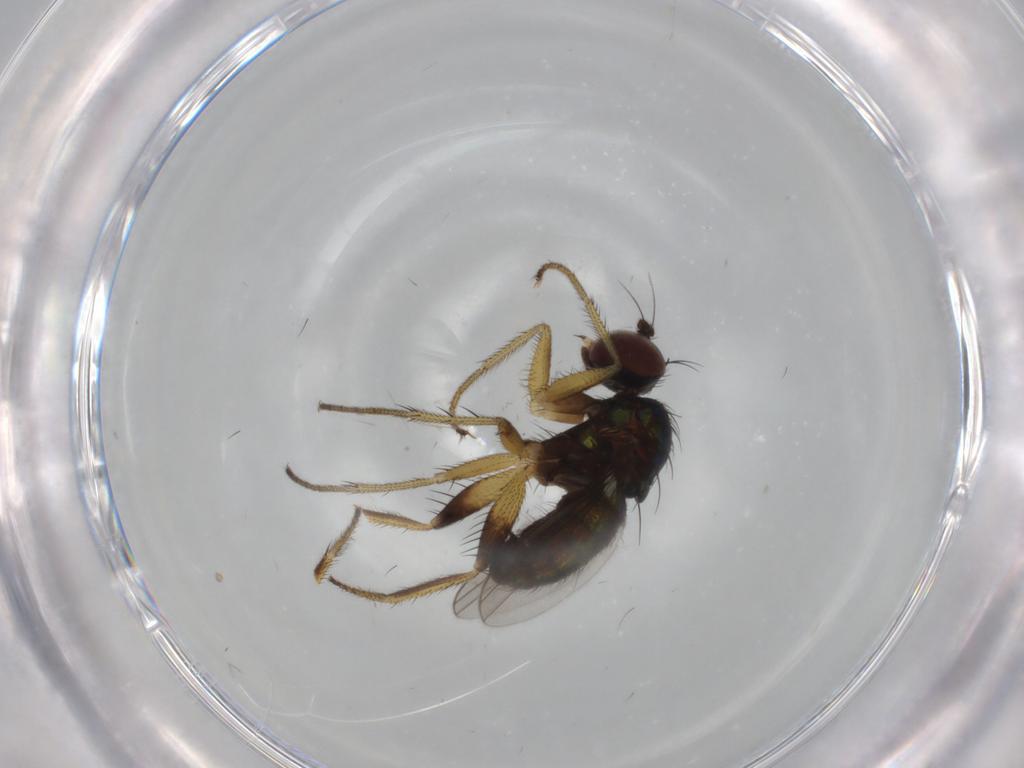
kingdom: Animalia
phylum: Arthropoda
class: Insecta
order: Diptera
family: Dolichopodidae
